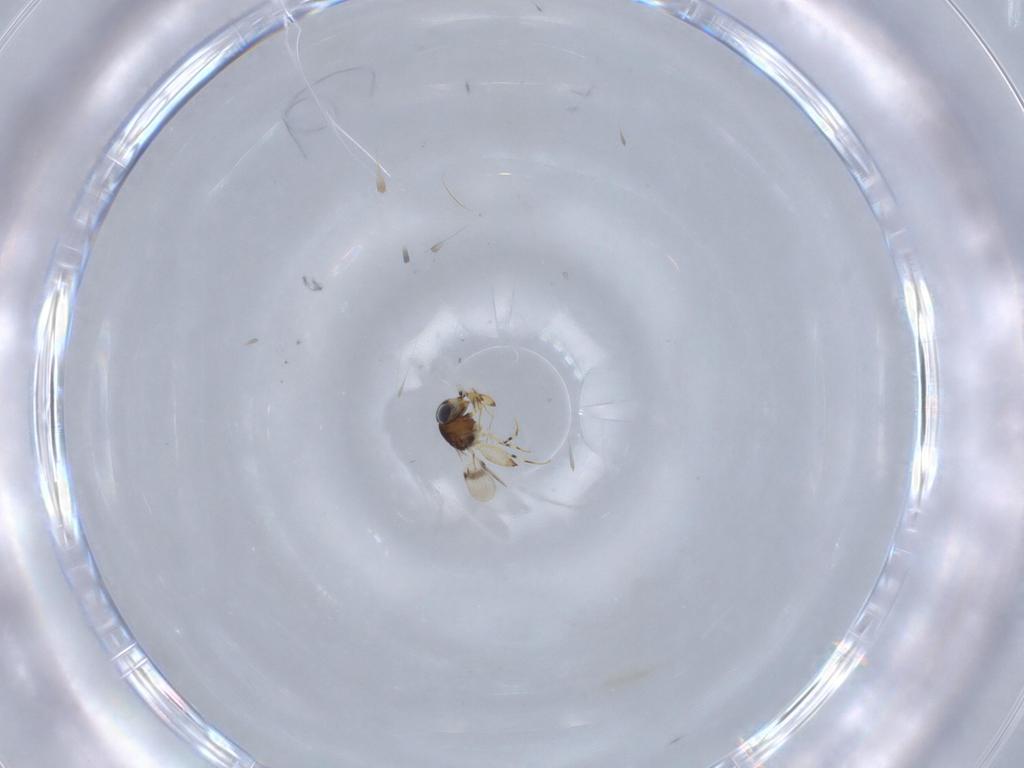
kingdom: Animalia
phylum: Arthropoda
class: Insecta
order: Hymenoptera
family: Scelionidae
